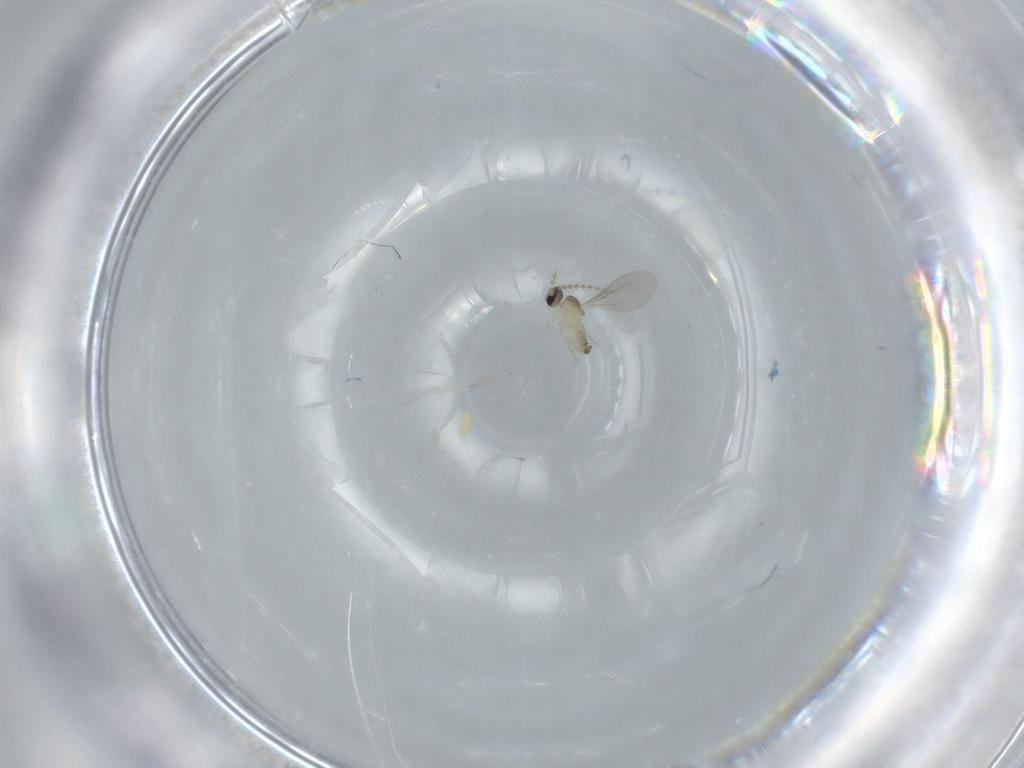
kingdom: Animalia
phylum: Arthropoda
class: Insecta
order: Diptera
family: Cecidomyiidae
